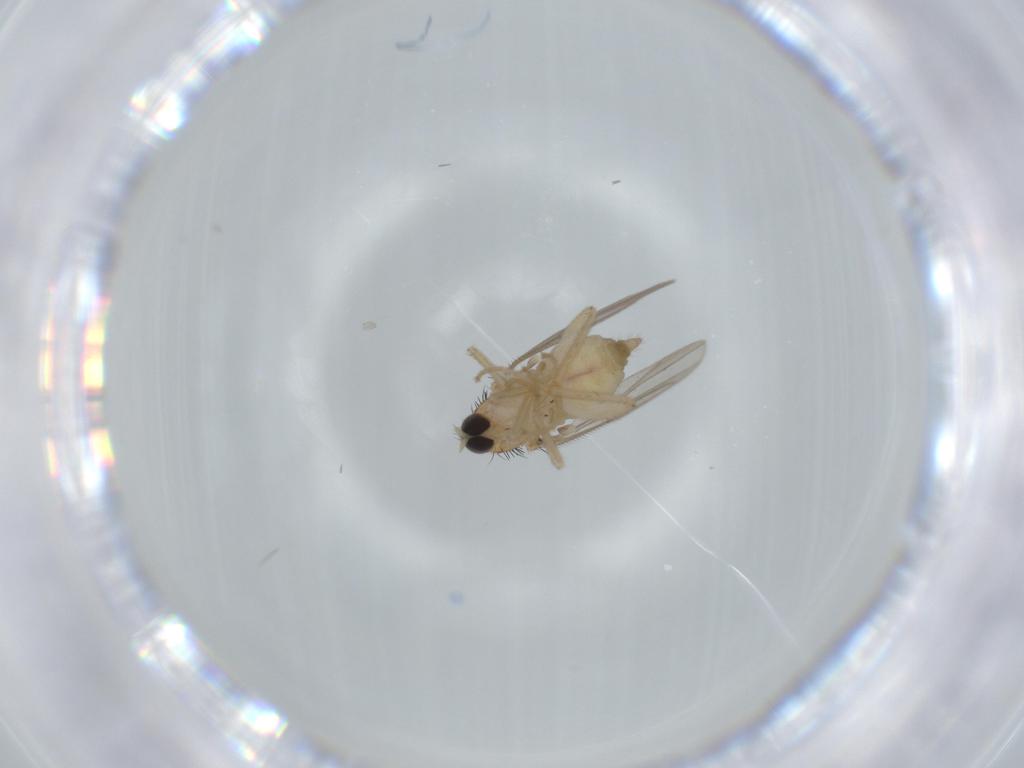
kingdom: Animalia
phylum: Arthropoda
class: Insecta
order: Diptera
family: Hybotidae
